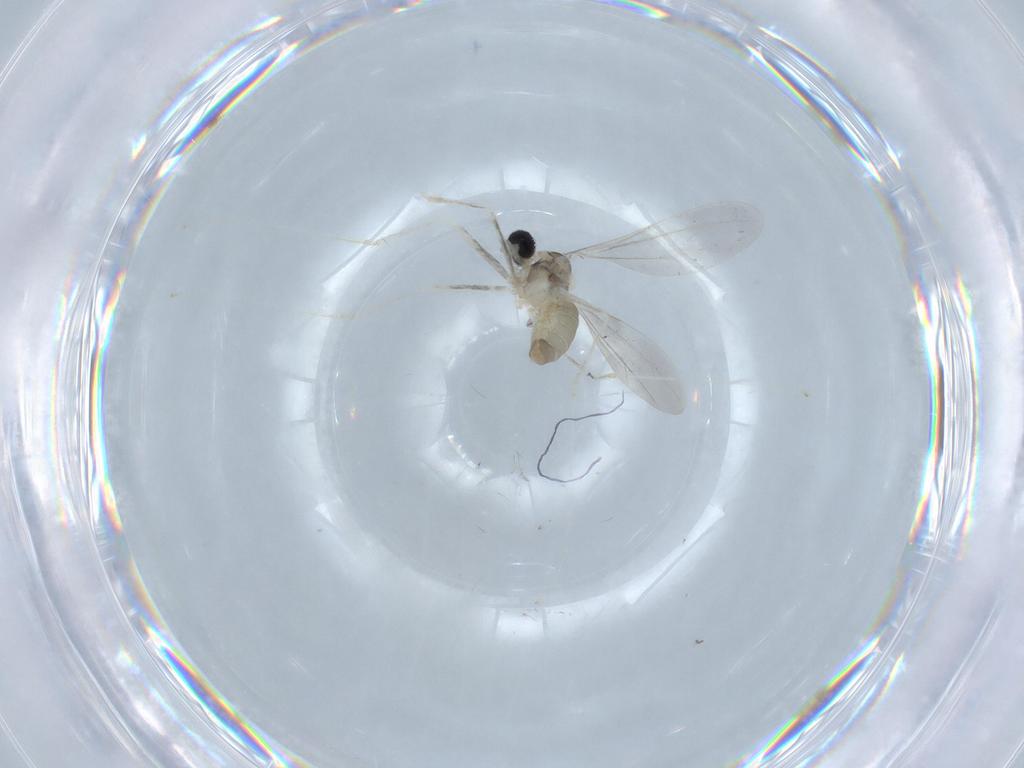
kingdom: Animalia
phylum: Arthropoda
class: Insecta
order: Diptera
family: Cecidomyiidae
